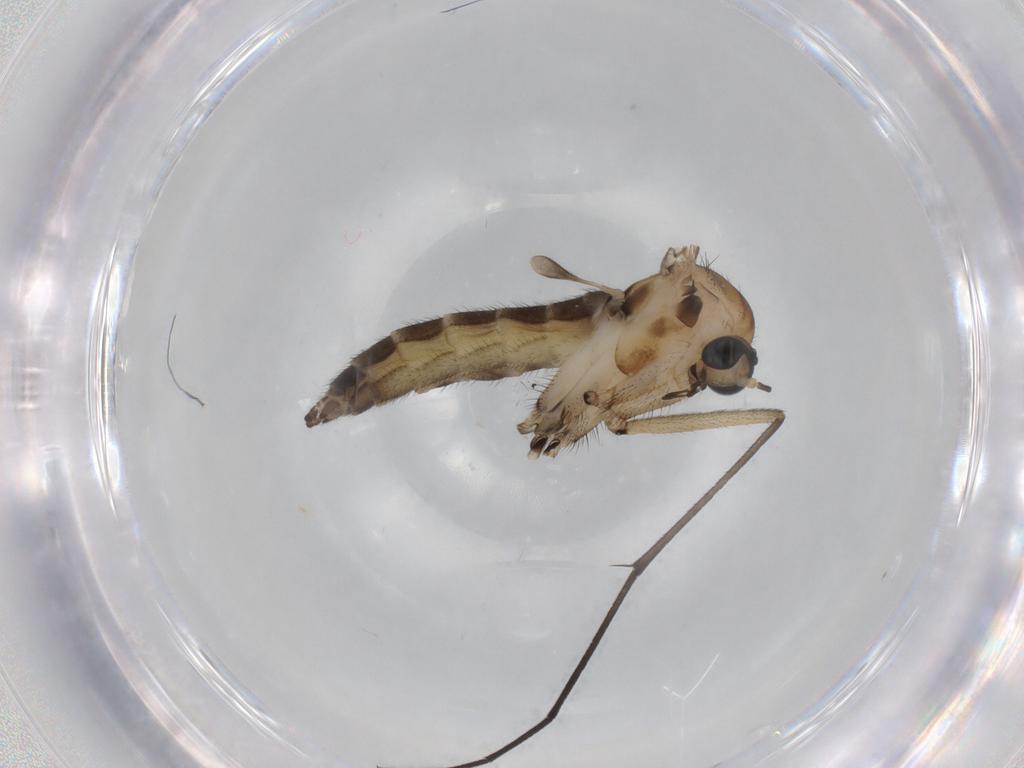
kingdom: Animalia
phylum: Arthropoda
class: Insecta
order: Diptera
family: Sciaridae
